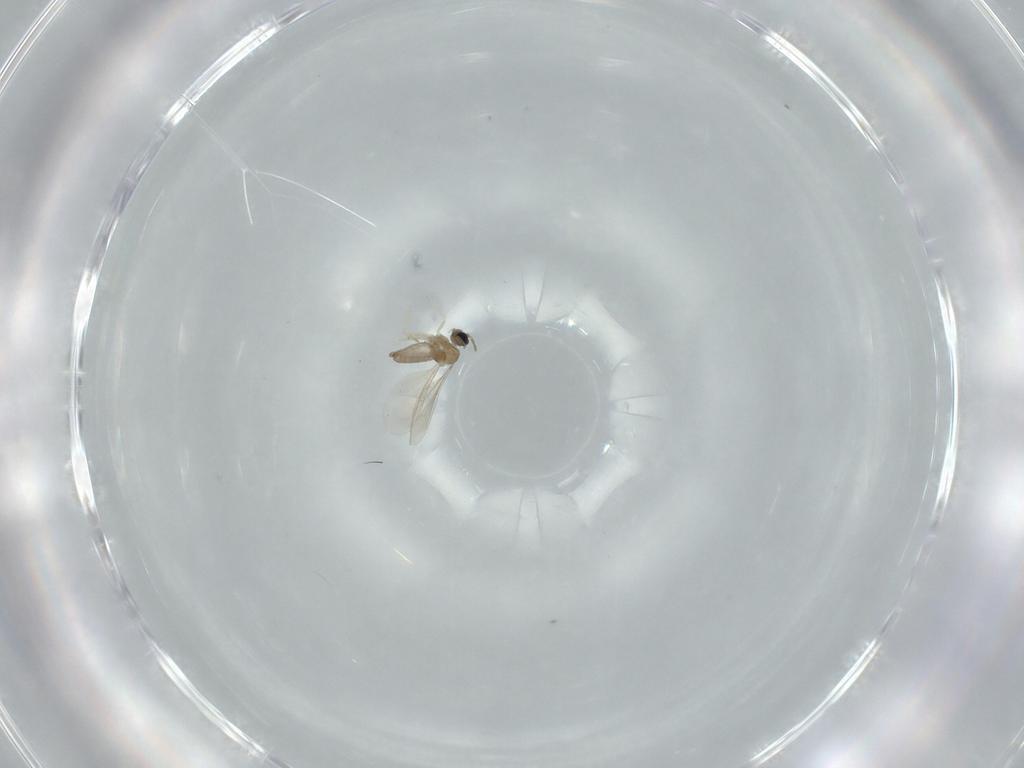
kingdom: Animalia
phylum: Arthropoda
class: Insecta
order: Diptera
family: Cecidomyiidae
